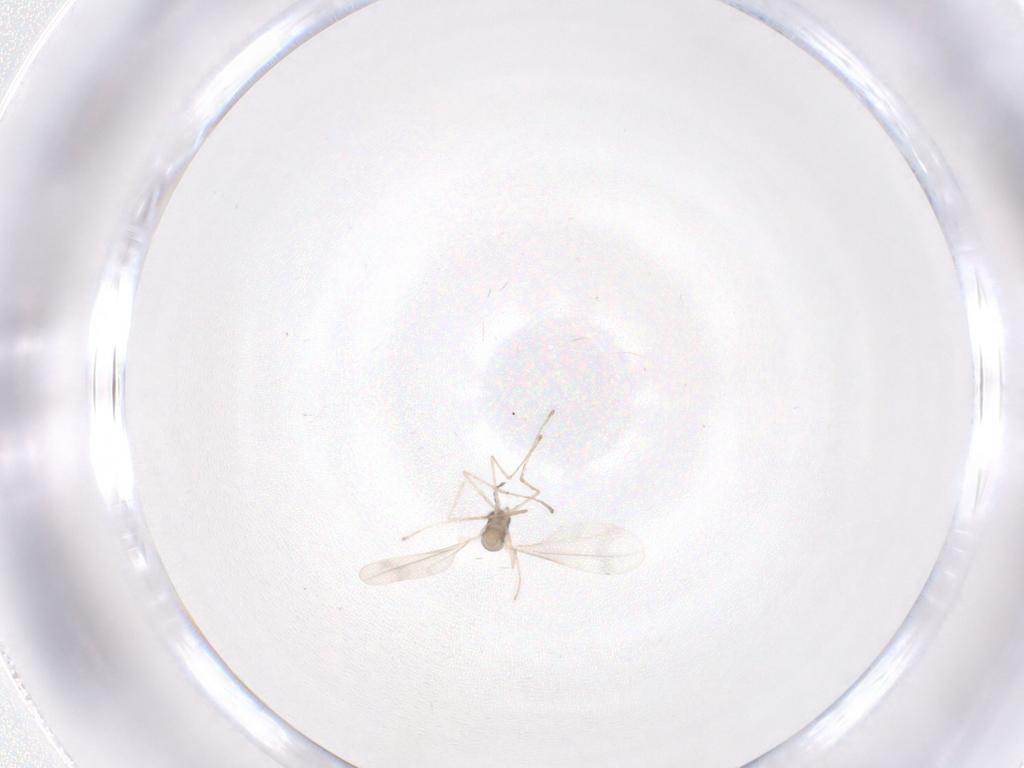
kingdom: Animalia
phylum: Arthropoda
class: Insecta
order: Diptera
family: Cecidomyiidae
